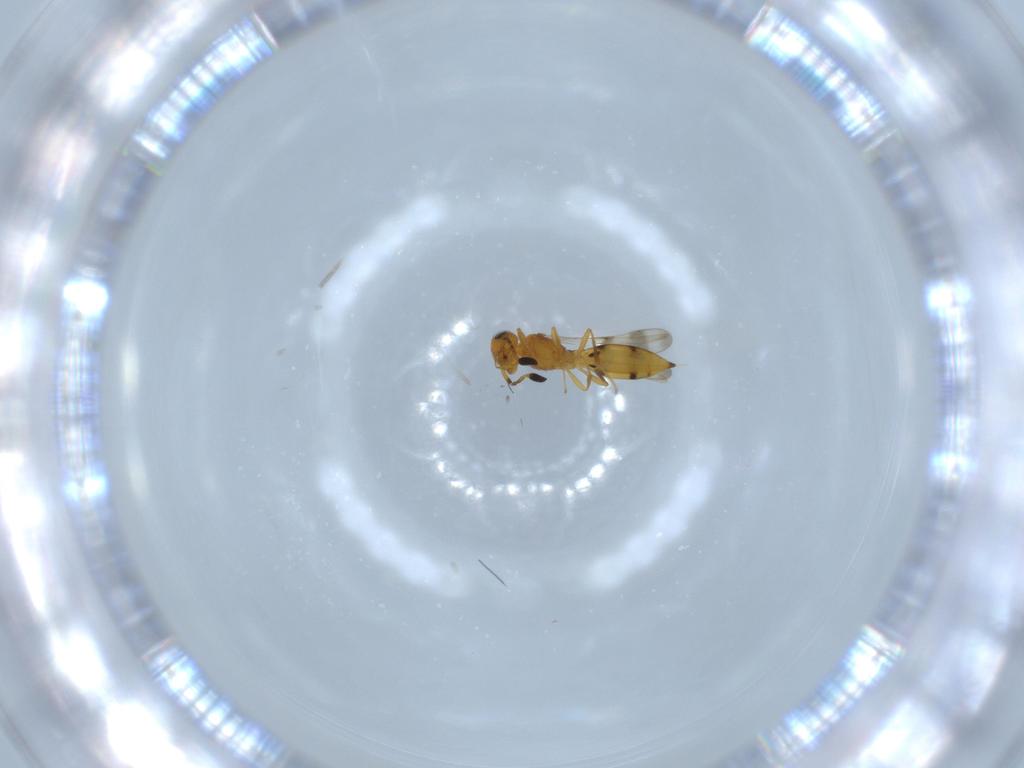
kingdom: Animalia
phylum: Arthropoda
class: Insecta
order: Hymenoptera
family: Scelionidae
